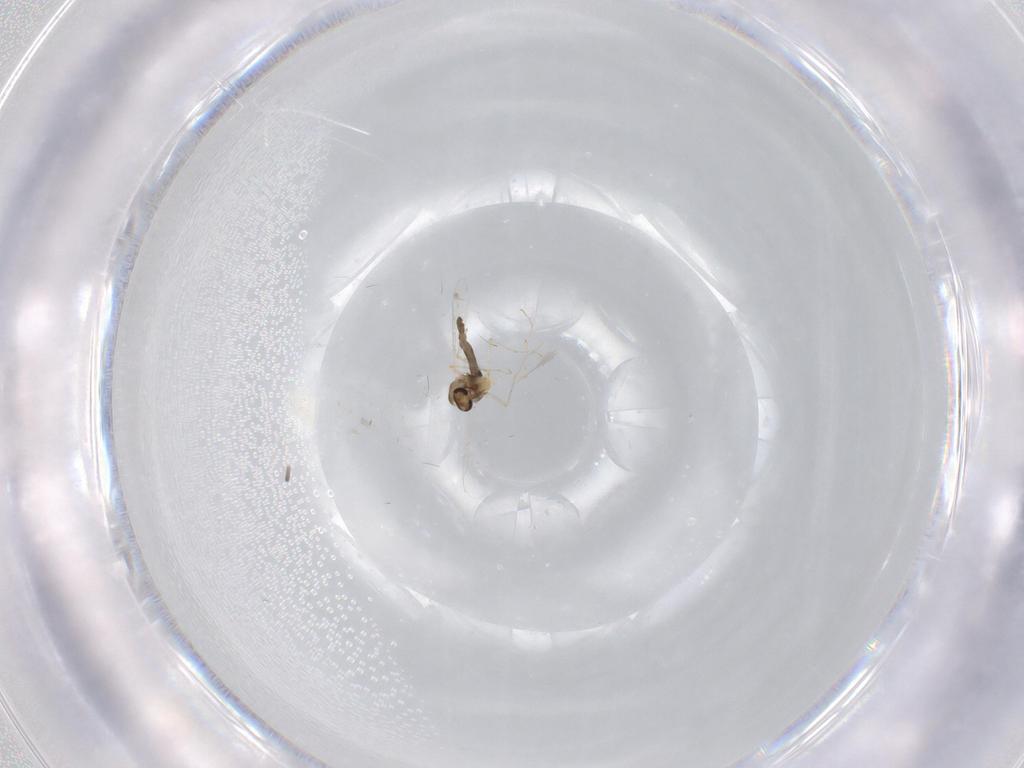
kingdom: Animalia
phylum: Arthropoda
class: Insecta
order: Diptera
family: Chironomidae
